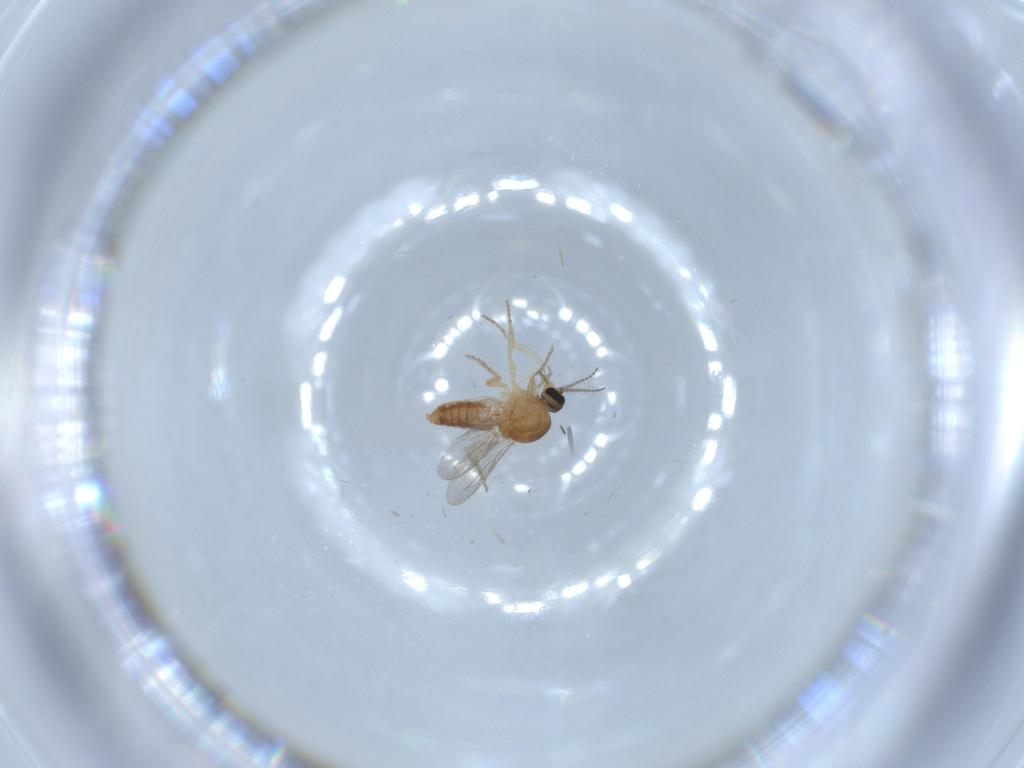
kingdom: Animalia
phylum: Arthropoda
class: Insecta
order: Diptera
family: Ceratopogonidae
